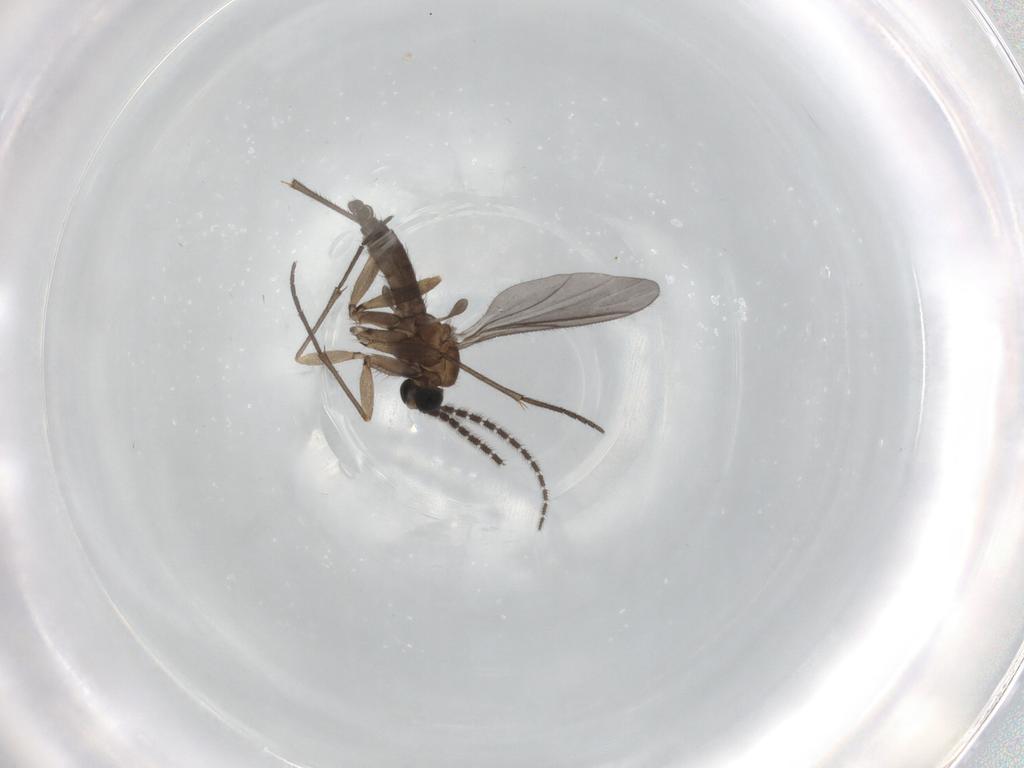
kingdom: Animalia
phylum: Arthropoda
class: Insecta
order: Diptera
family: Sciaridae
